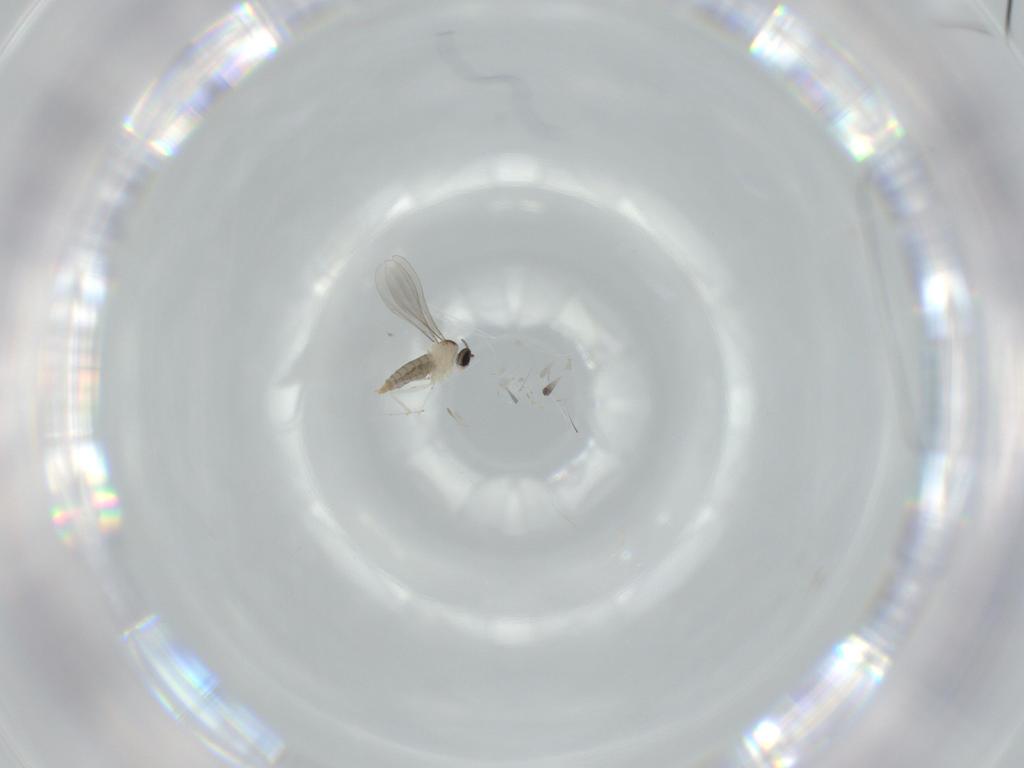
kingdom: Animalia
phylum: Arthropoda
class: Insecta
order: Diptera
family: Cecidomyiidae
